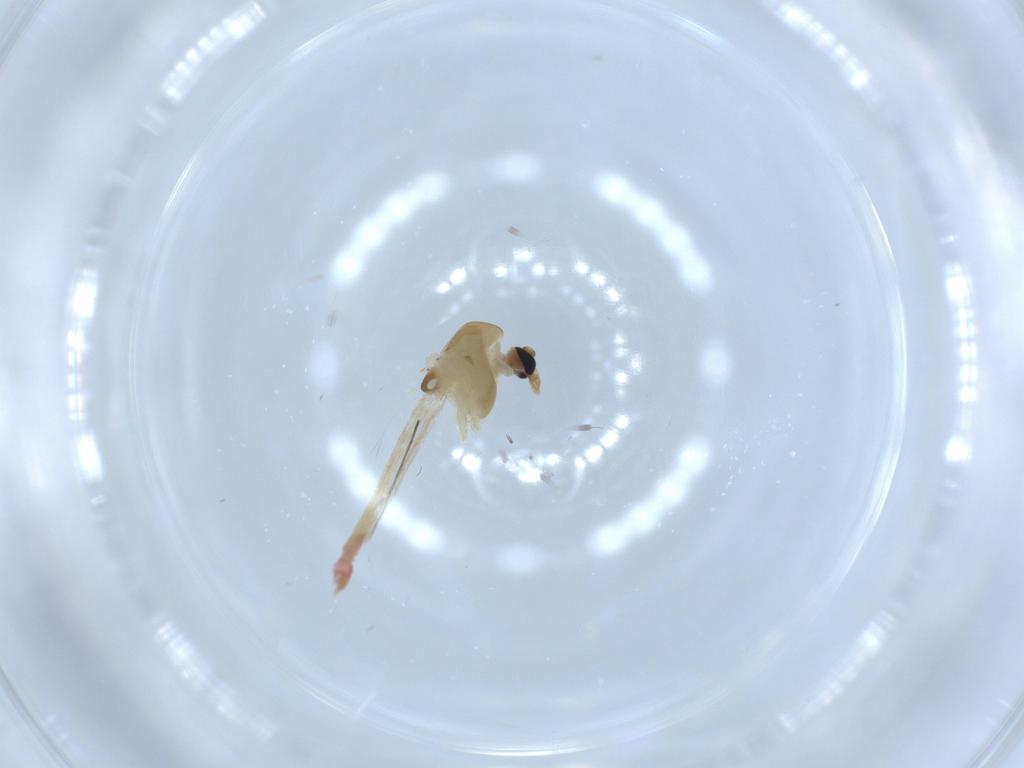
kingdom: Animalia
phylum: Arthropoda
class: Insecta
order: Diptera
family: Chironomidae
